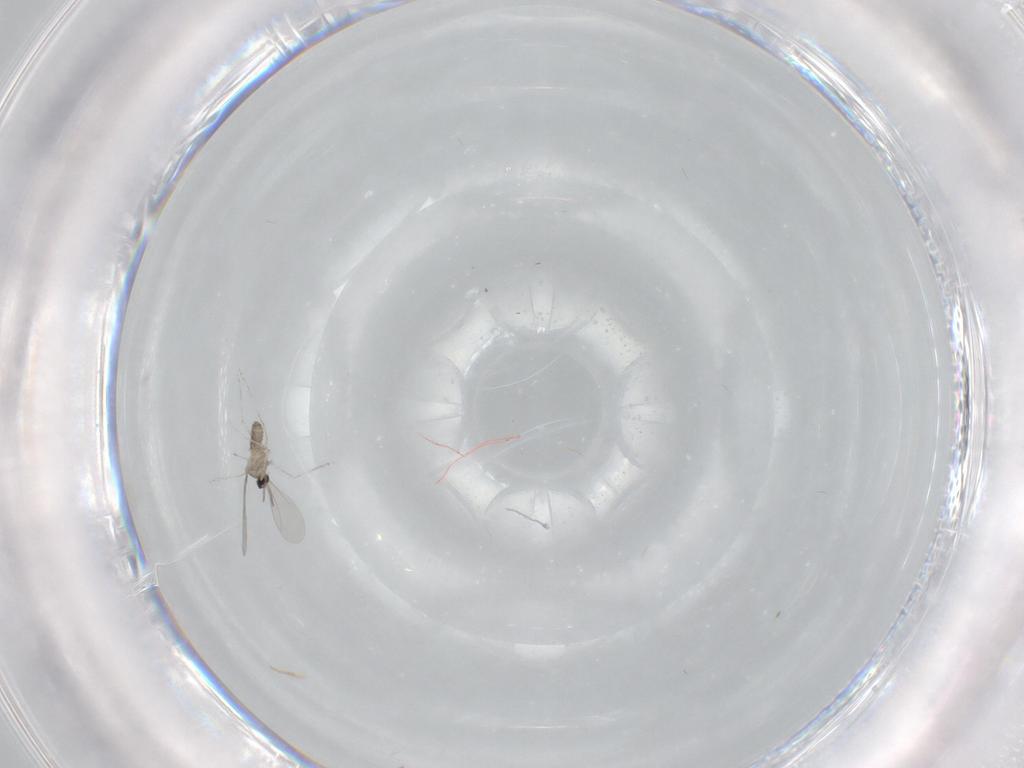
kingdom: Animalia
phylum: Arthropoda
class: Insecta
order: Diptera
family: Cecidomyiidae
